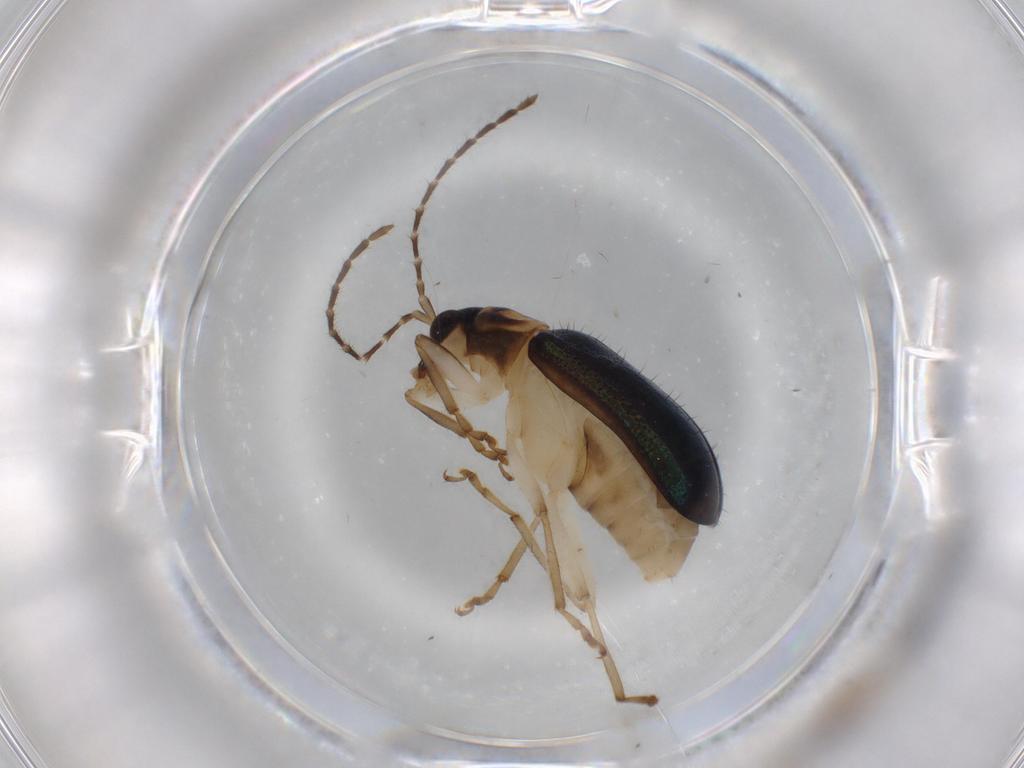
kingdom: Animalia
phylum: Arthropoda
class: Insecta
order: Coleoptera
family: Chrysomelidae
